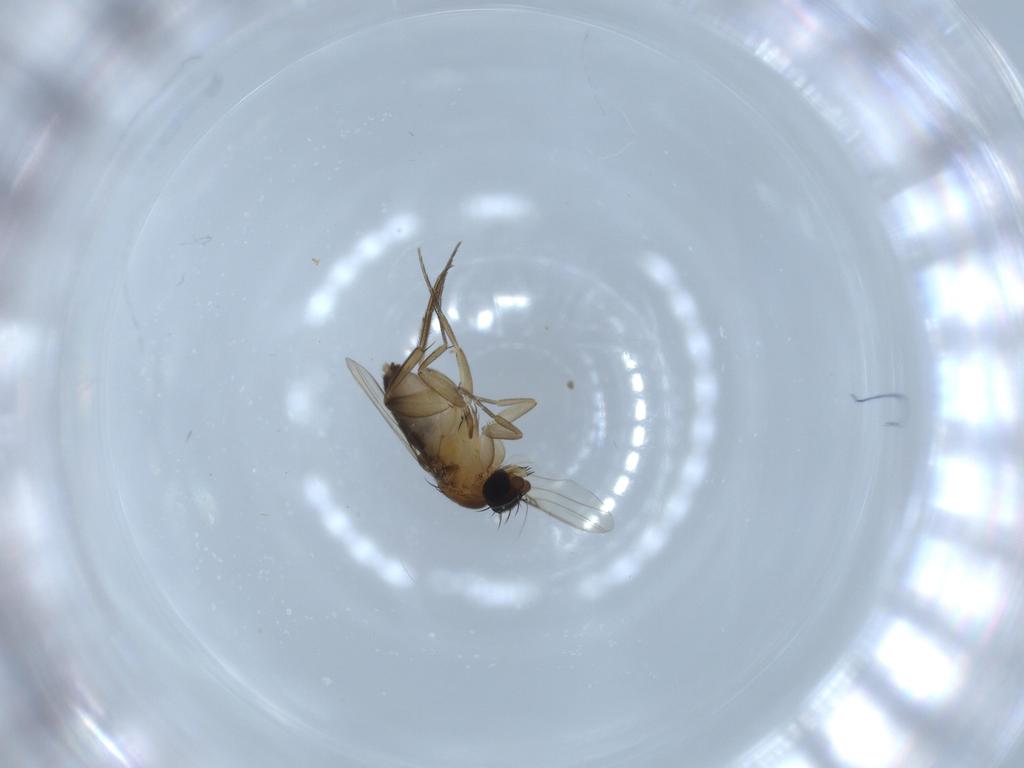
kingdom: Animalia
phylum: Arthropoda
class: Insecta
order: Diptera
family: Phoridae
